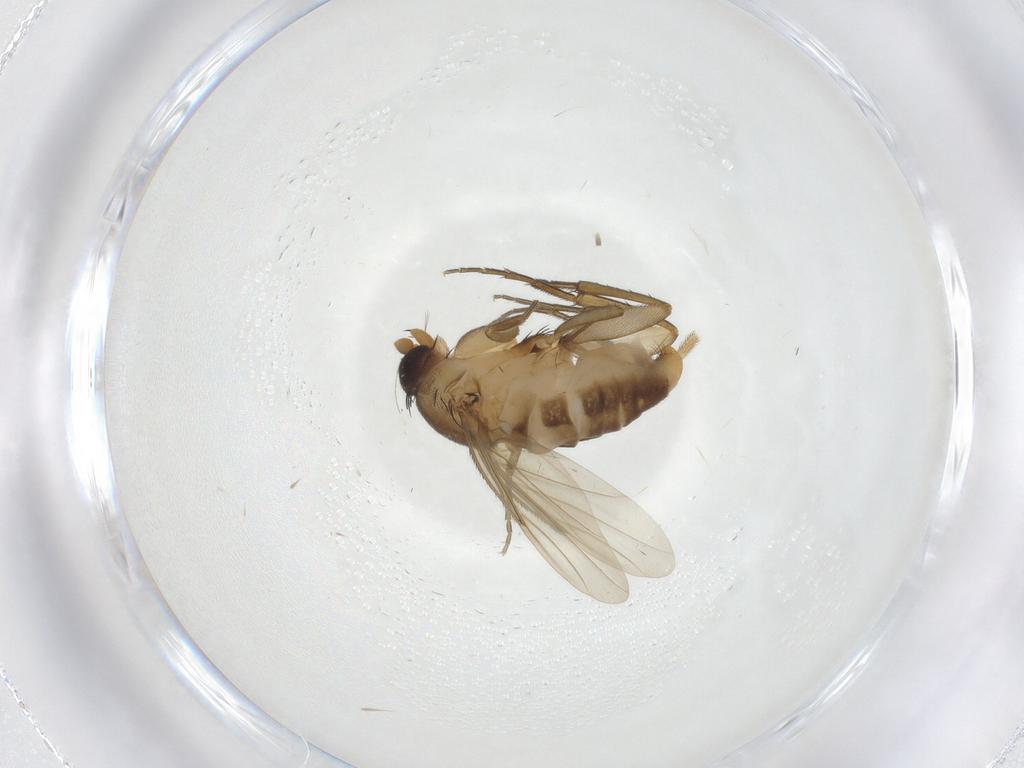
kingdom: Animalia
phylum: Arthropoda
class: Insecta
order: Diptera
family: Phoridae
